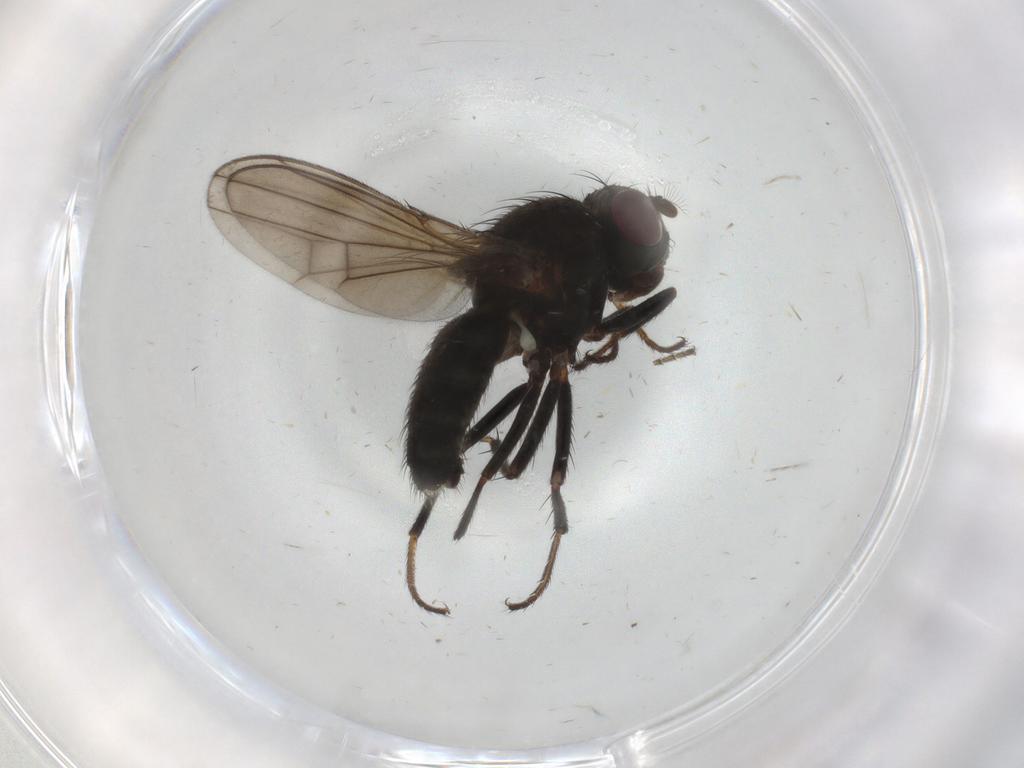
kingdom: Animalia
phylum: Arthropoda
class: Insecta
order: Diptera
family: Ephydridae
